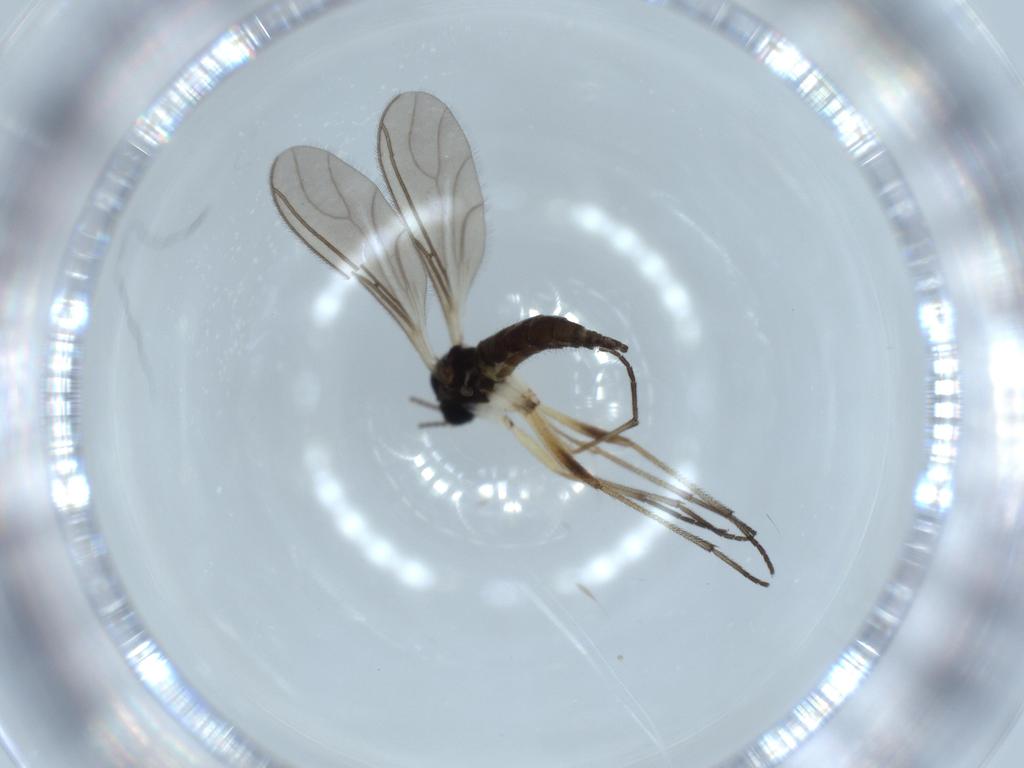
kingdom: Animalia
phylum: Arthropoda
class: Insecta
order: Diptera
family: Sciaridae
